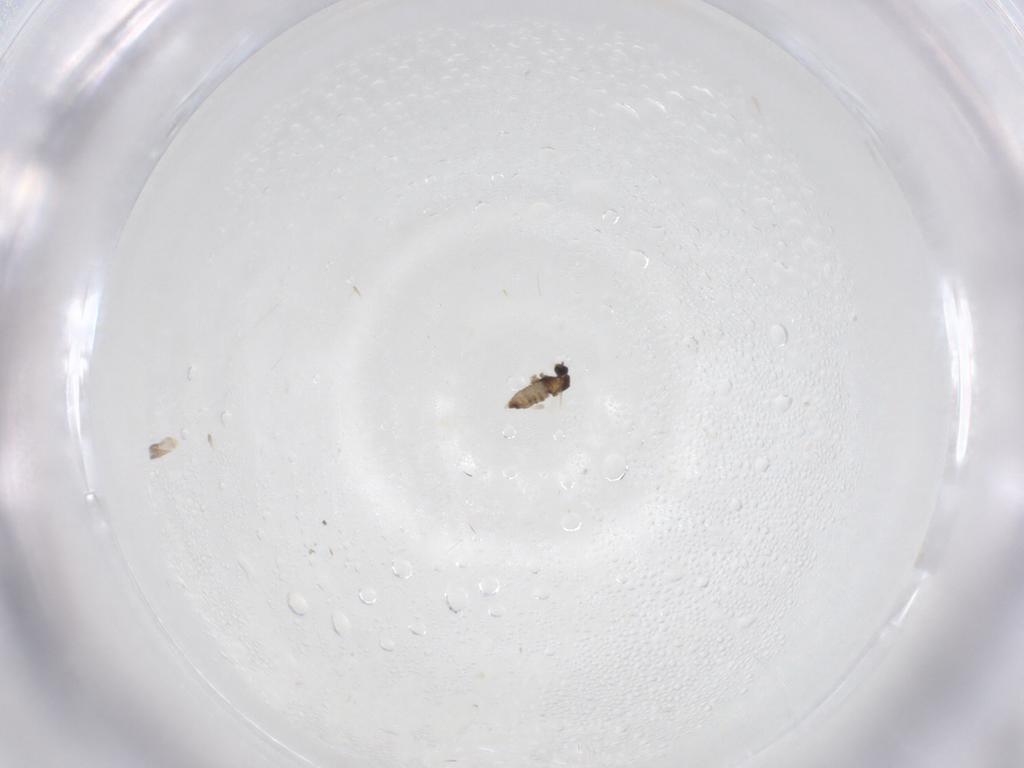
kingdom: Animalia
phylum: Arthropoda
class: Insecta
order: Diptera
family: Cecidomyiidae
